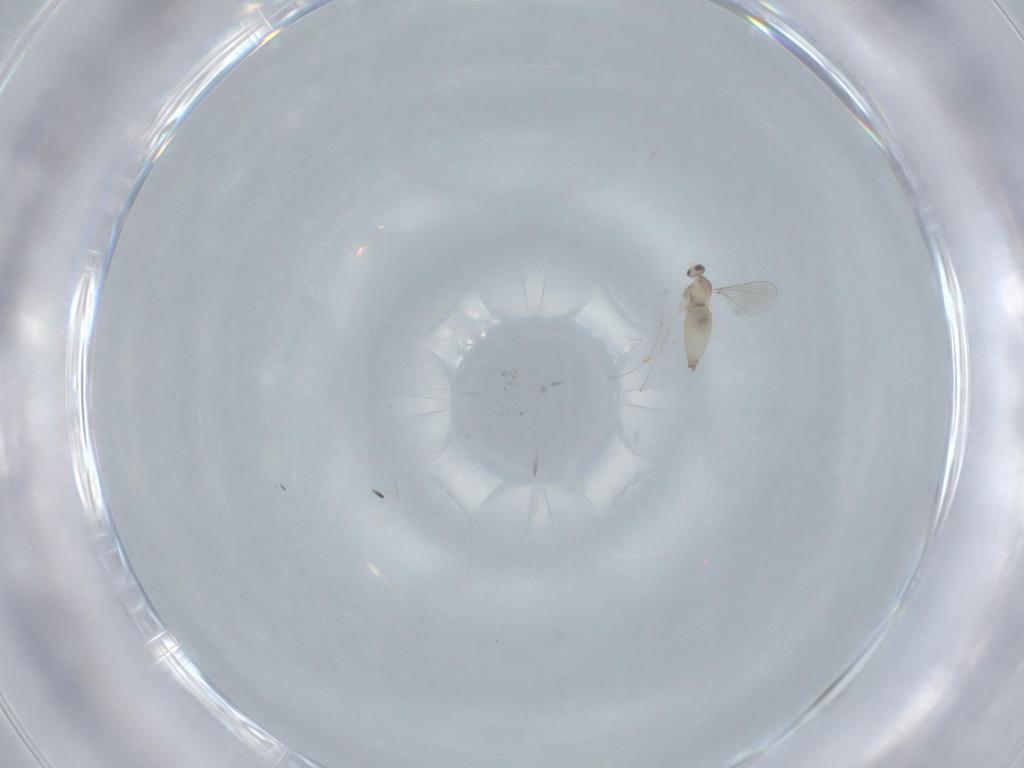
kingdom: Animalia
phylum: Arthropoda
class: Insecta
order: Diptera
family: Cecidomyiidae
